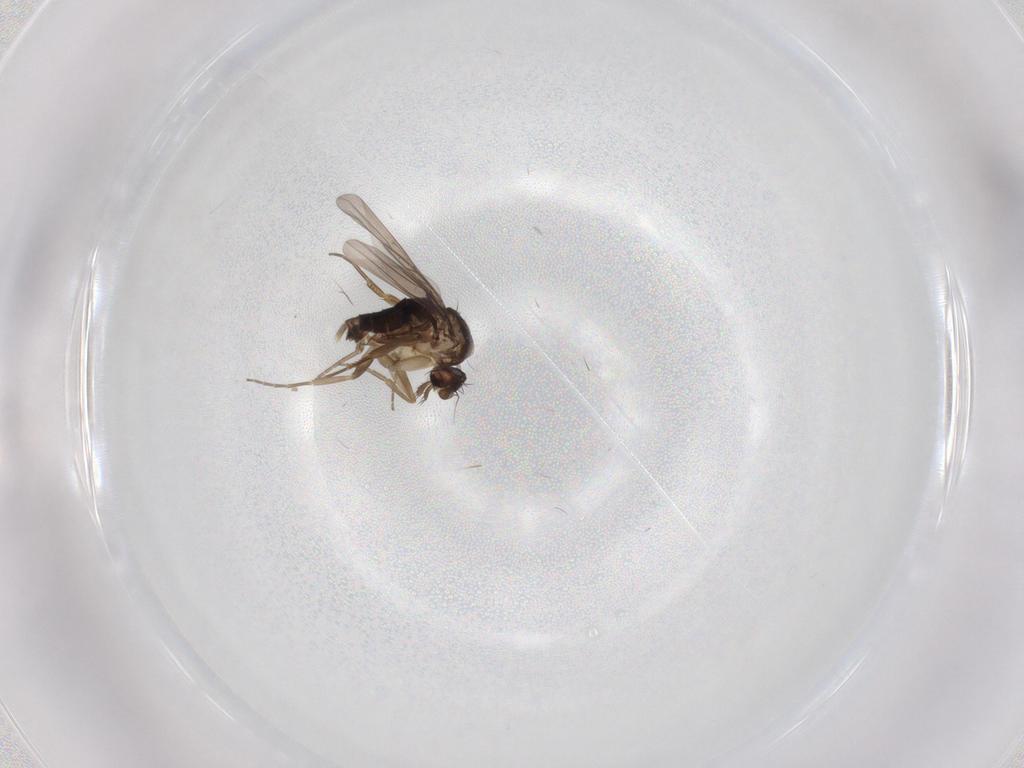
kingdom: Animalia
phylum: Arthropoda
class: Insecta
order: Diptera
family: Phoridae
